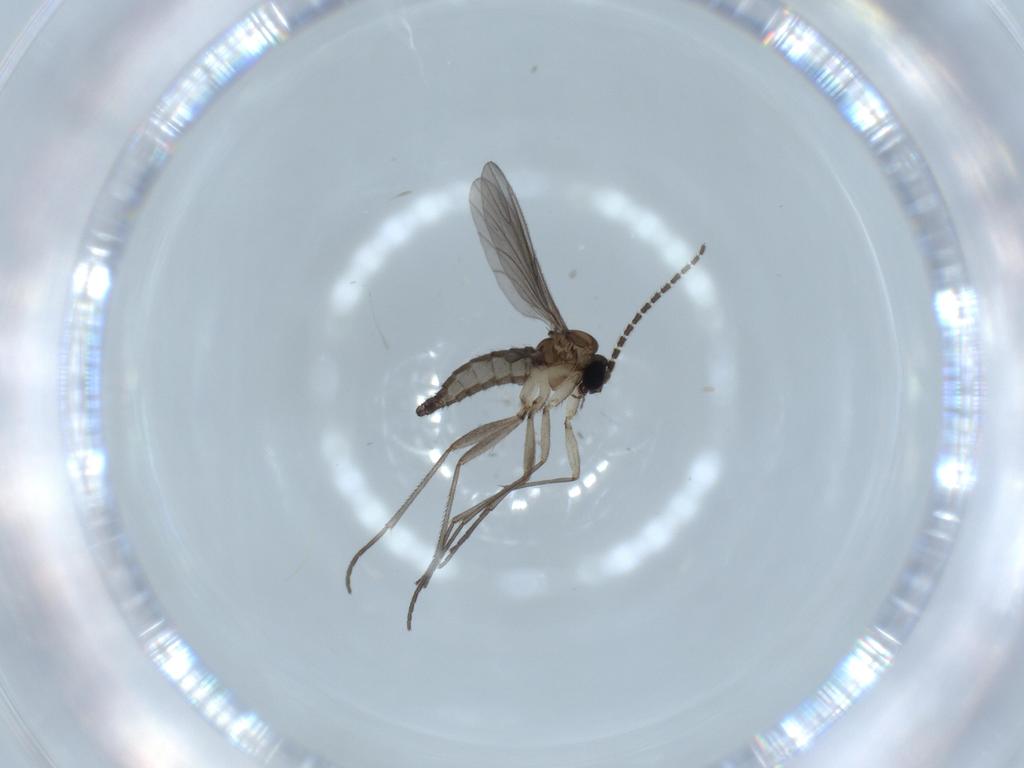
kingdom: Animalia
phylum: Arthropoda
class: Insecta
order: Diptera
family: Sciaridae
